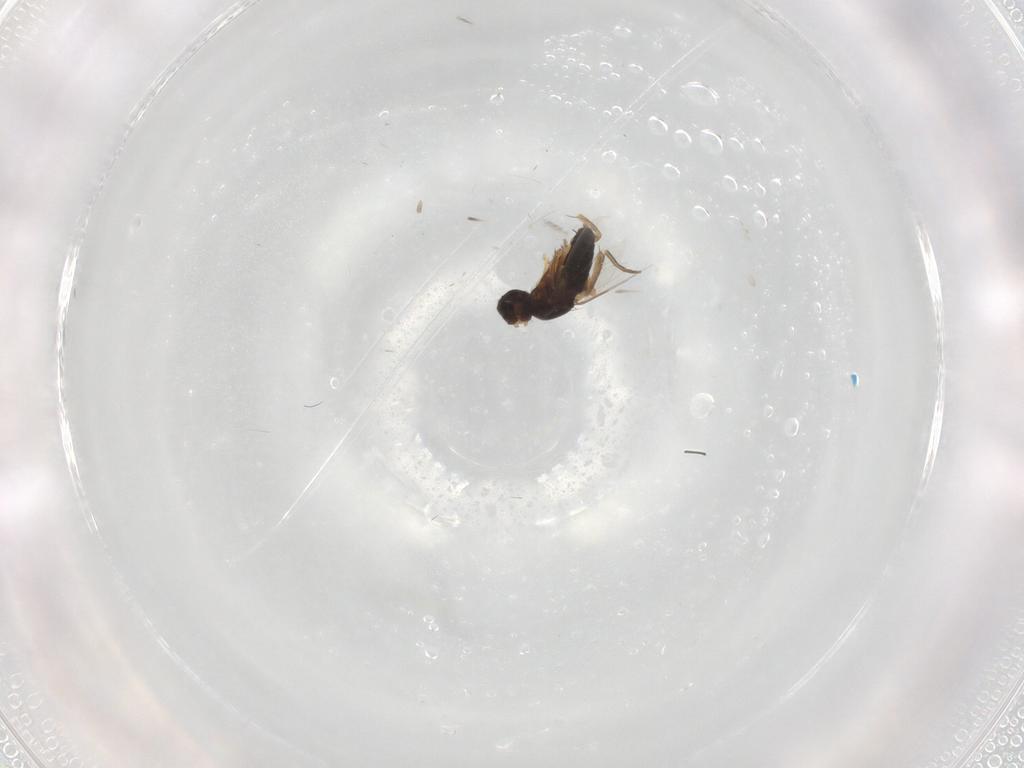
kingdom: Animalia
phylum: Arthropoda
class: Insecta
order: Diptera
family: Phoridae
